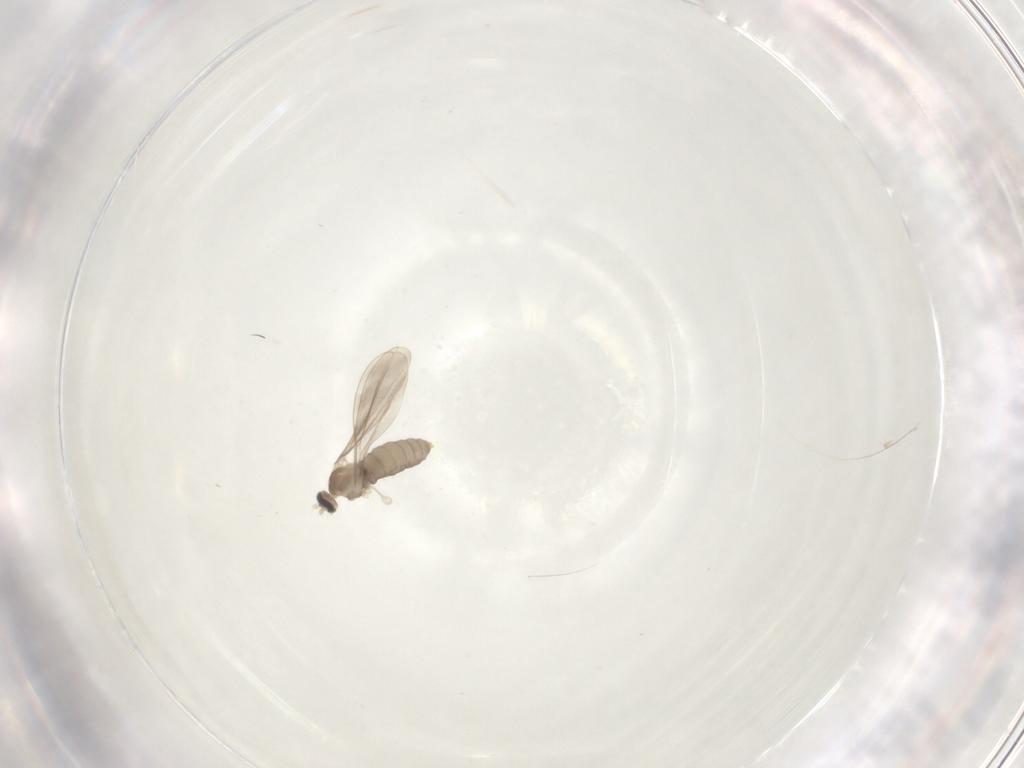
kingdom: Animalia
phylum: Arthropoda
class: Insecta
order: Diptera
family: Cecidomyiidae
